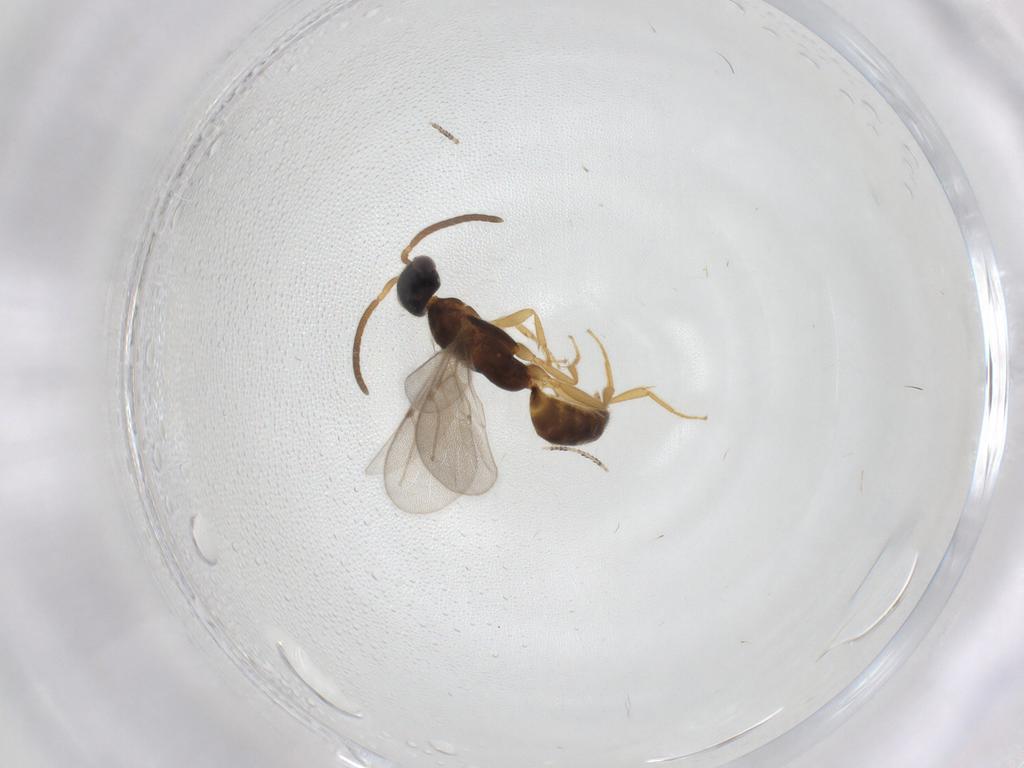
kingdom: Animalia
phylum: Arthropoda
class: Insecta
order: Hymenoptera
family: Bethylidae
